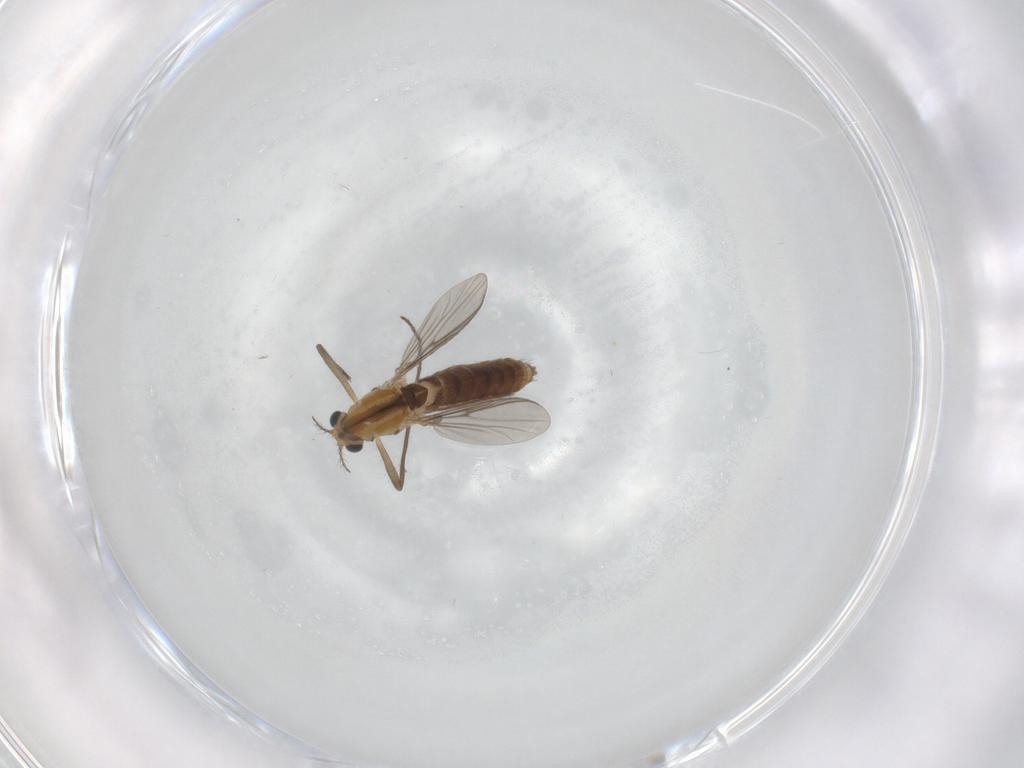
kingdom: Animalia
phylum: Arthropoda
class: Insecta
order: Diptera
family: Chironomidae
